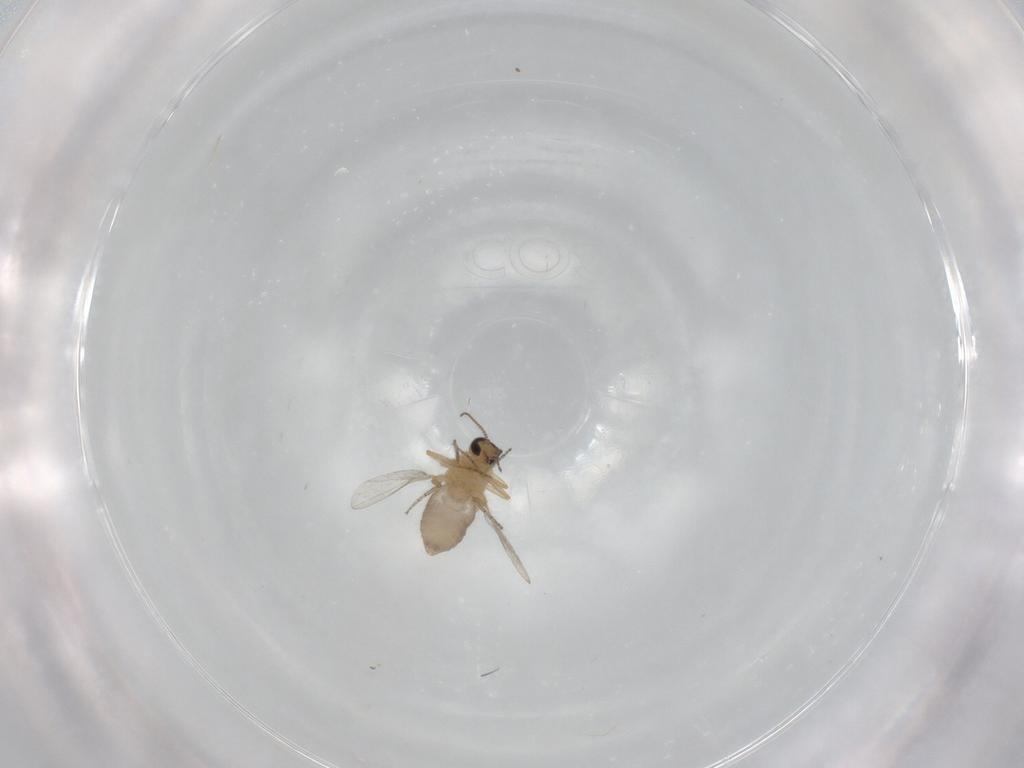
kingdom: Animalia
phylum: Arthropoda
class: Insecta
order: Diptera
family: Ceratopogonidae
